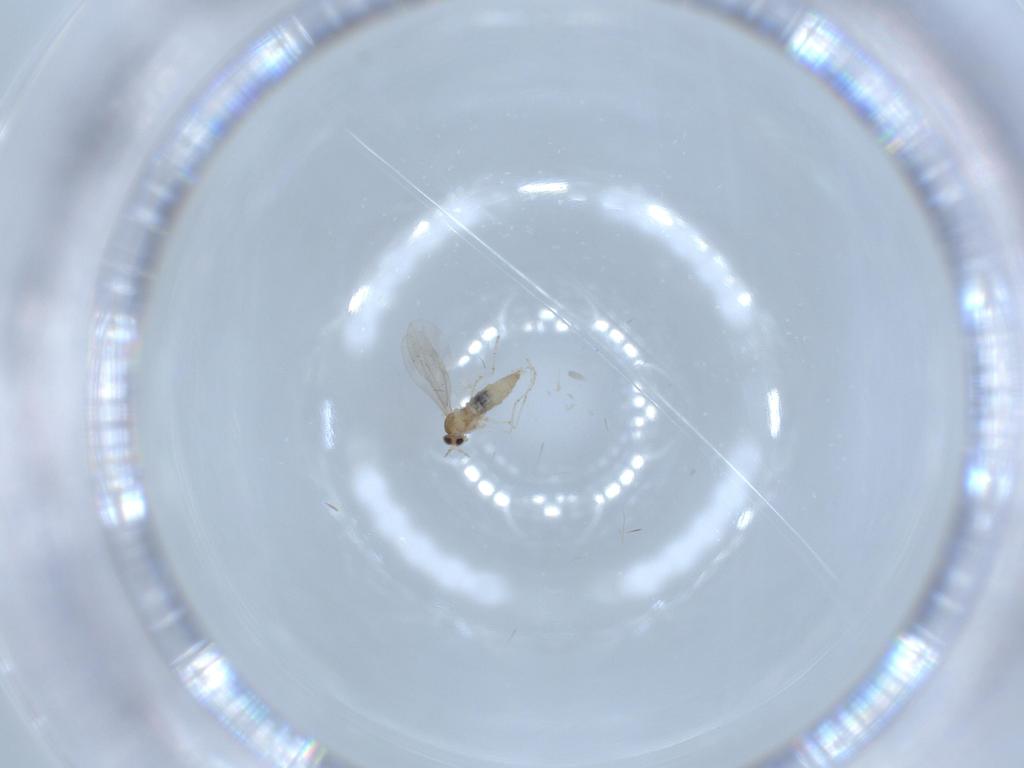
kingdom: Animalia
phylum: Arthropoda
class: Insecta
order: Diptera
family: Cecidomyiidae
